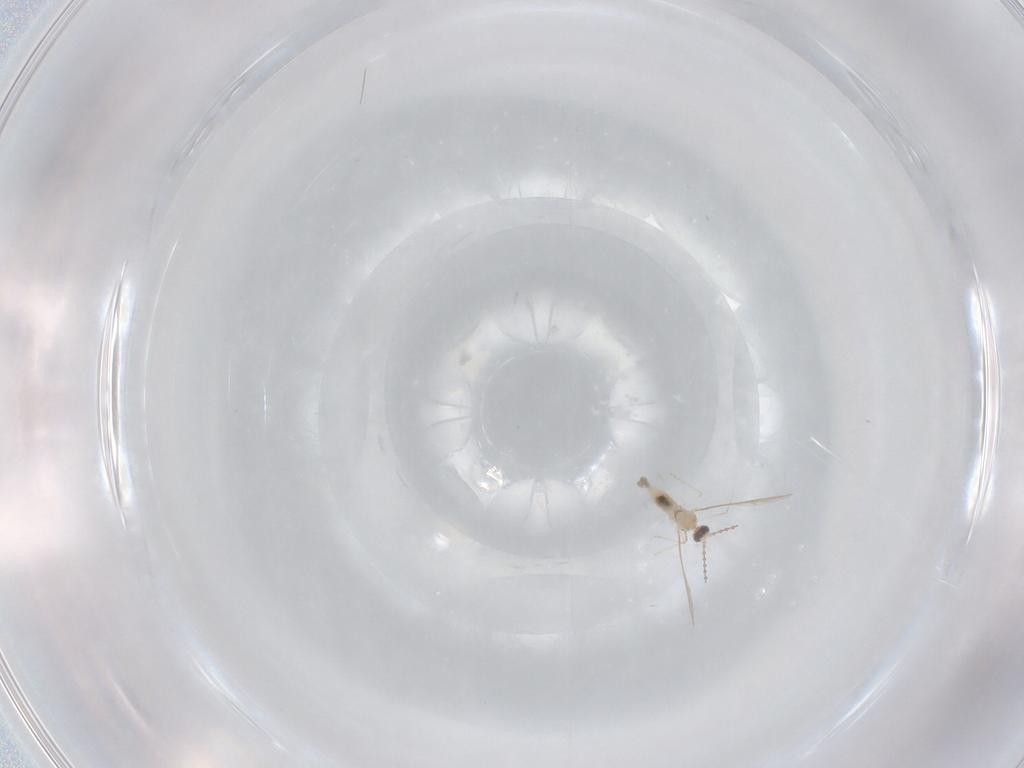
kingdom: Animalia
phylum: Arthropoda
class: Insecta
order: Diptera
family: Cecidomyiidae
